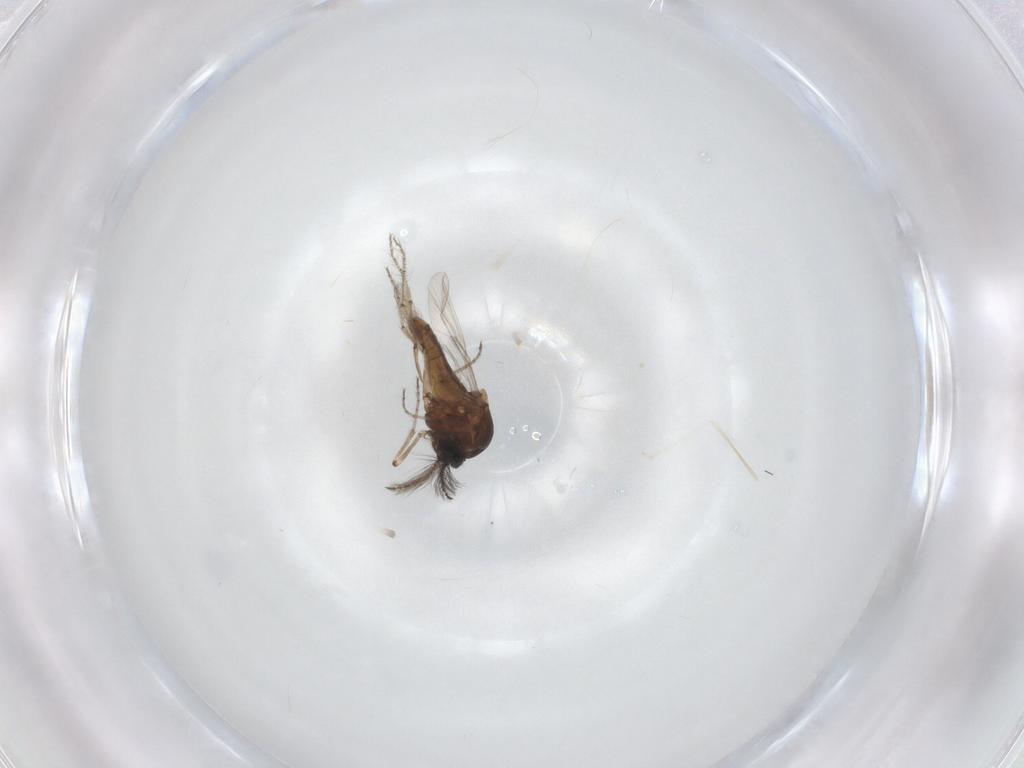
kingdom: Animalia
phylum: Arthropoda
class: Insecta
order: Diptera
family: Ceratopogonidae
